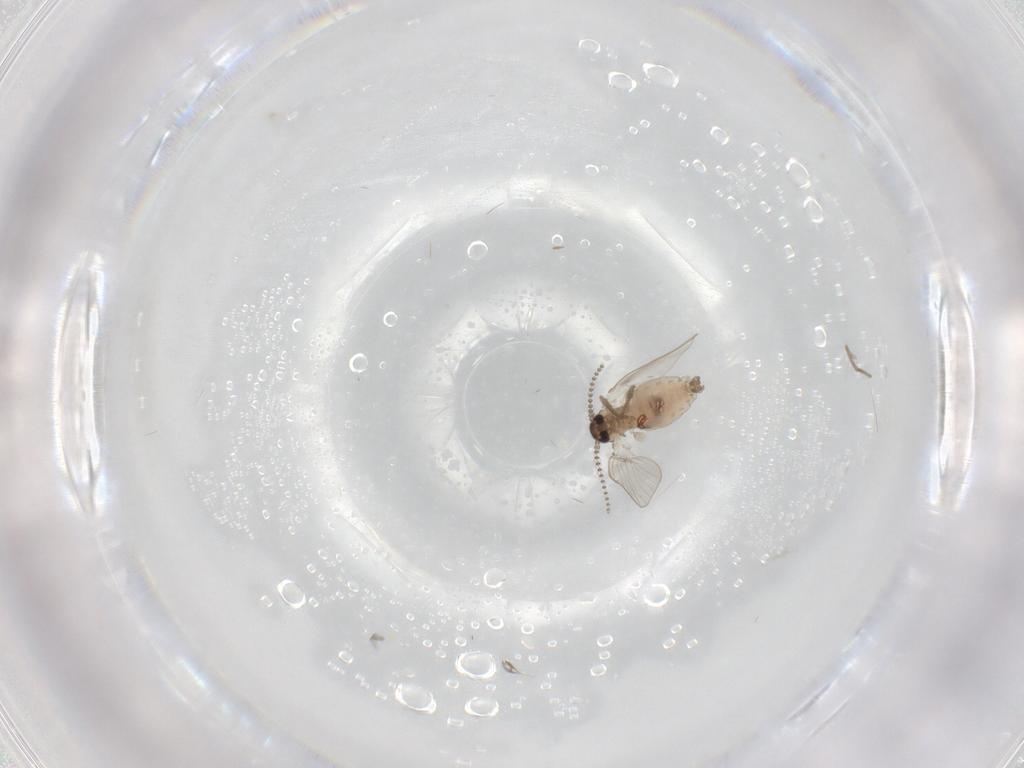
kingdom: Animalia
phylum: Arthropoda
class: Insecta
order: Diptera
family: Psychodidae
